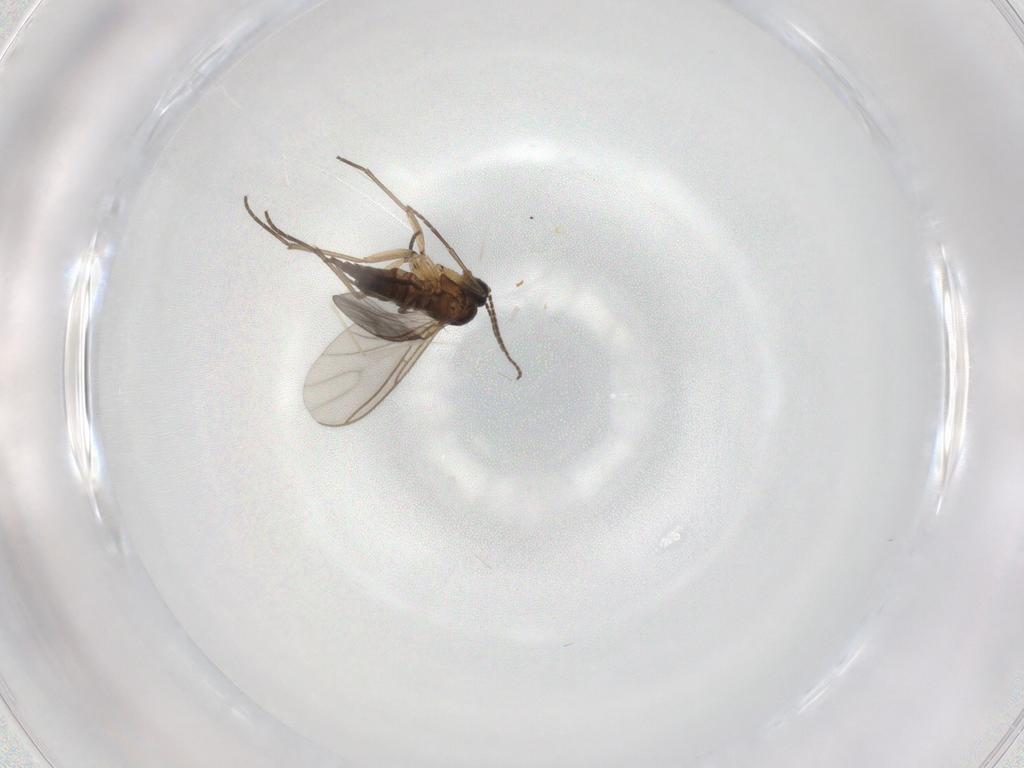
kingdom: Animalia
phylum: Arthropoda
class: Insecta
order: Diptera
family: Sciaridae
